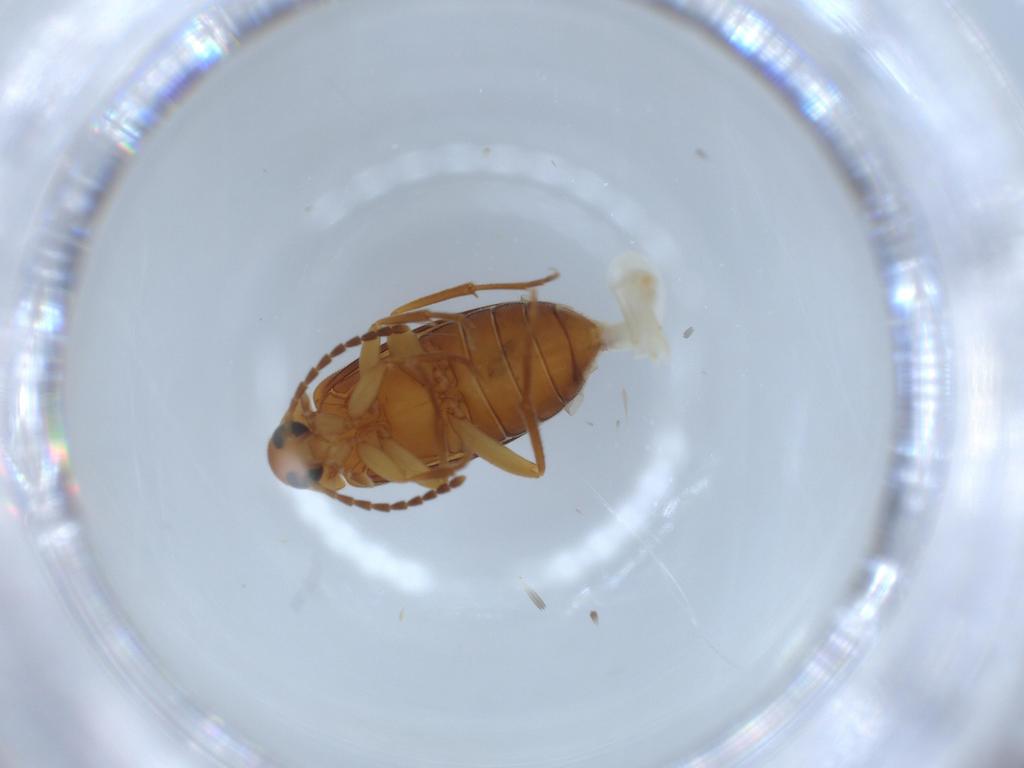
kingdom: Animalia
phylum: Arthropoda
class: Insecta
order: Coleoptera
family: Scraptiidae
